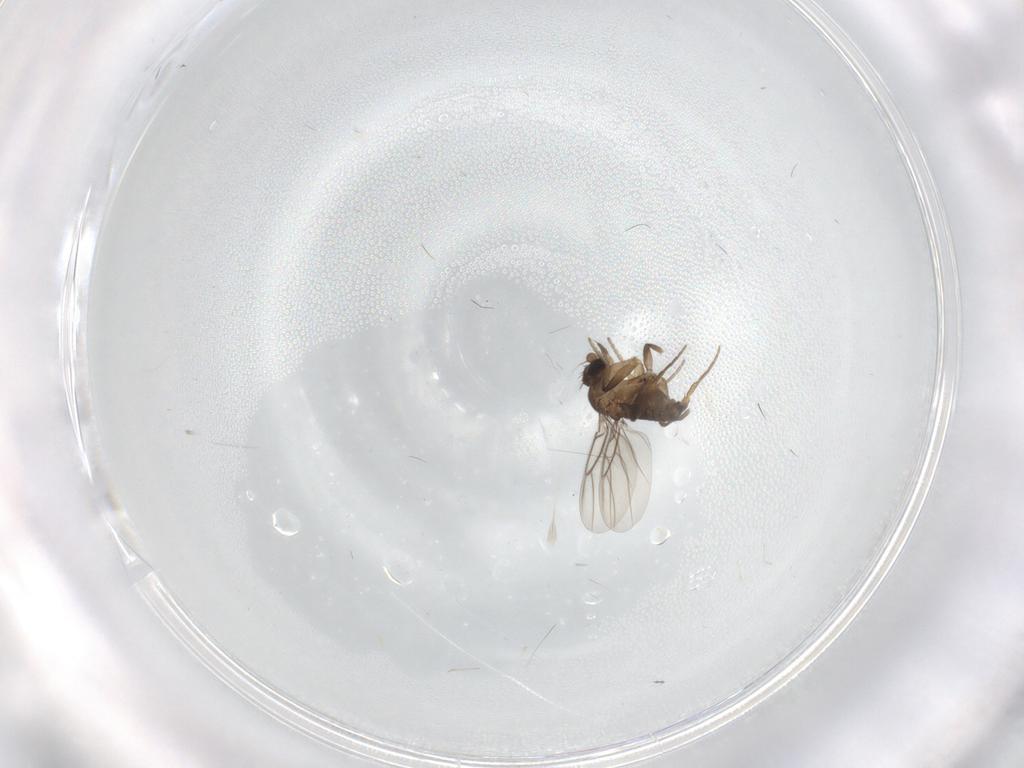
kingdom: Animalia
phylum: Arthropoda
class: Insecta
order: Diptera
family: Phoridae
